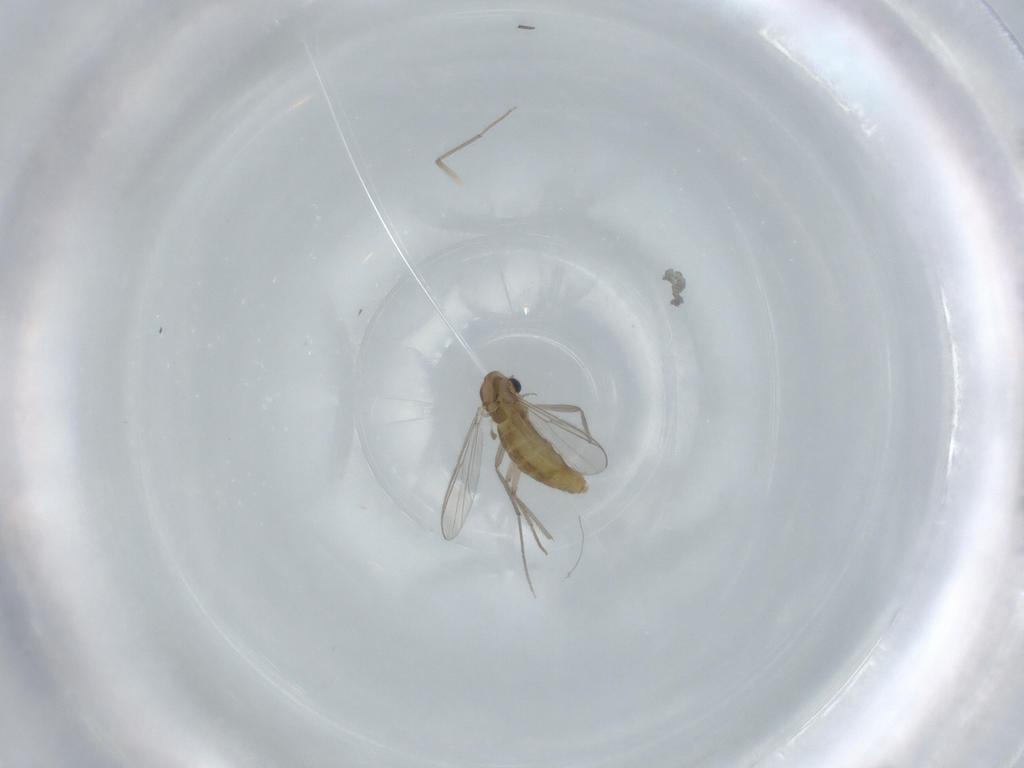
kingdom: Animalia
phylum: Arthropoda
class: Insecta
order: Diptera
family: Chironomidae
